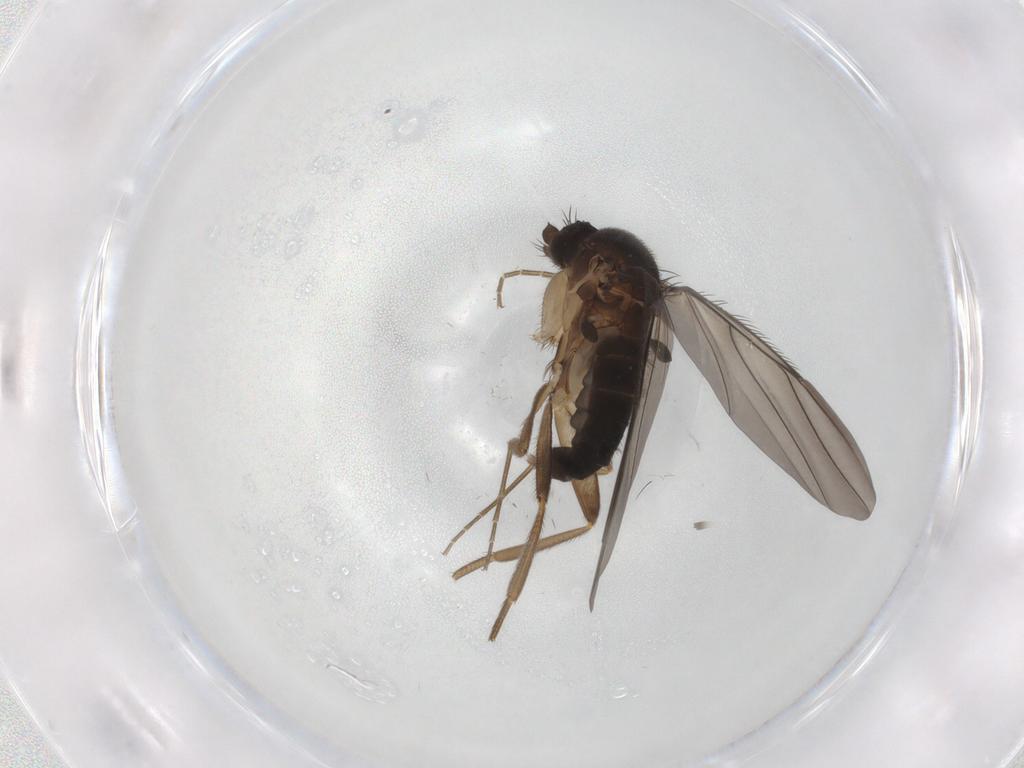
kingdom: Animalia
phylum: Arthropoda
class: Insecta
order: Diptera
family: Phoridae
